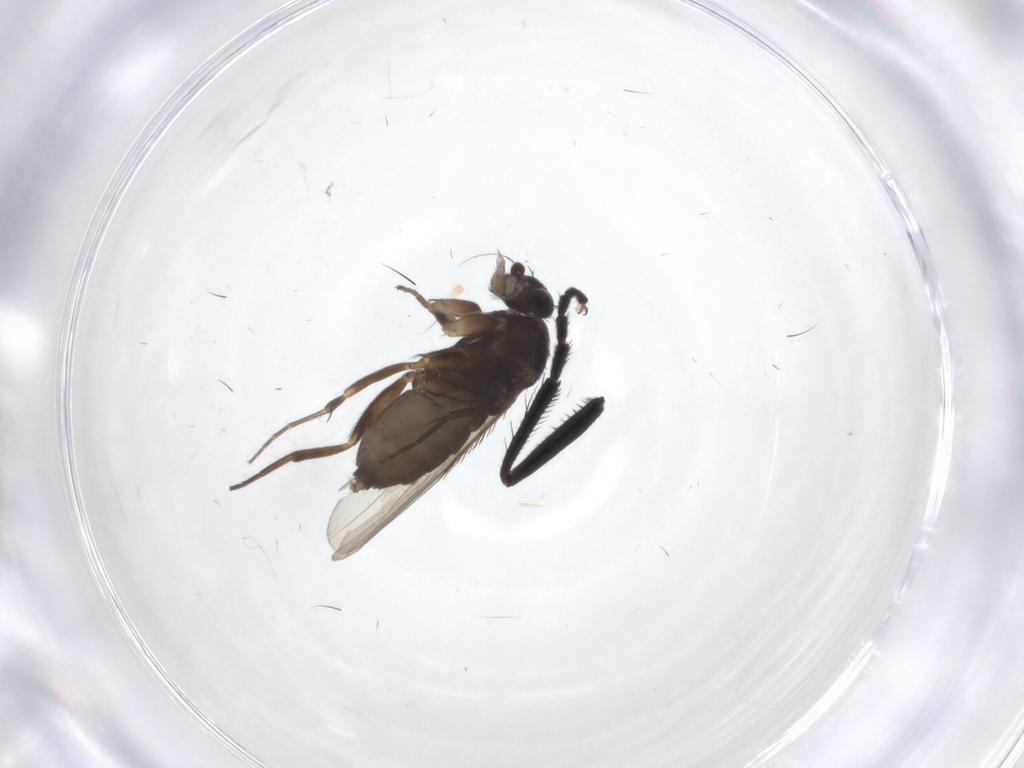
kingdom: Animalia
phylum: Arthropoda
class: Insecta
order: Diptera
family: Phoridae
